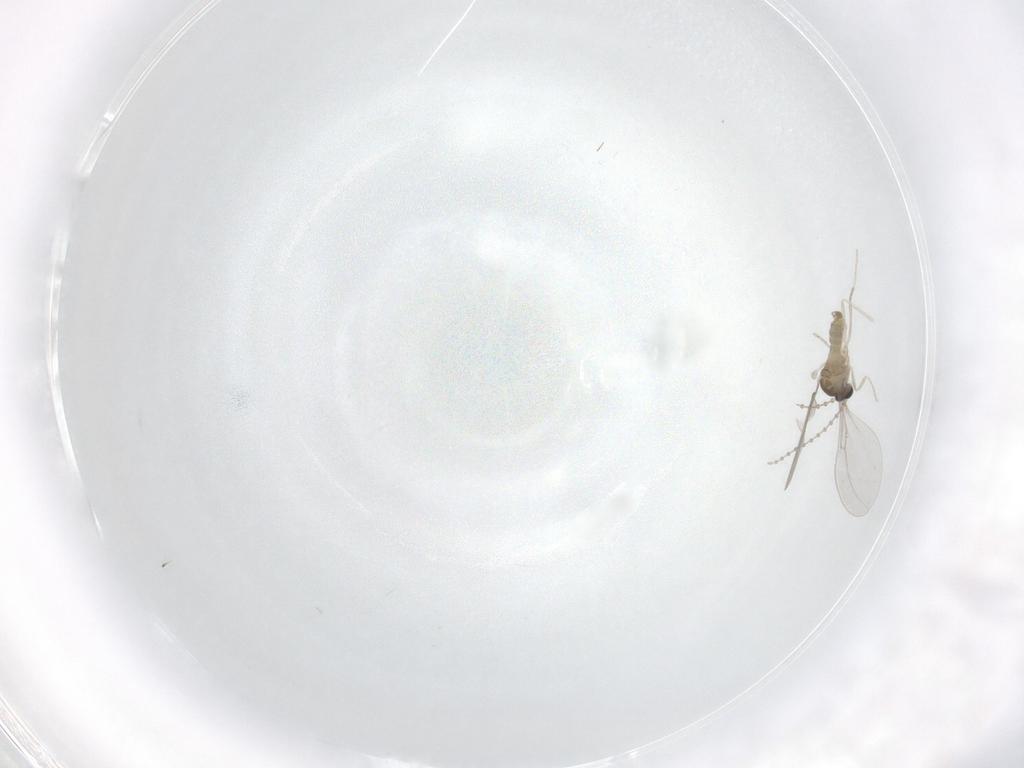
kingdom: Animalia
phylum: Arthropoda
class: Insecta
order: Diptera
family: Cecidomyiidae
